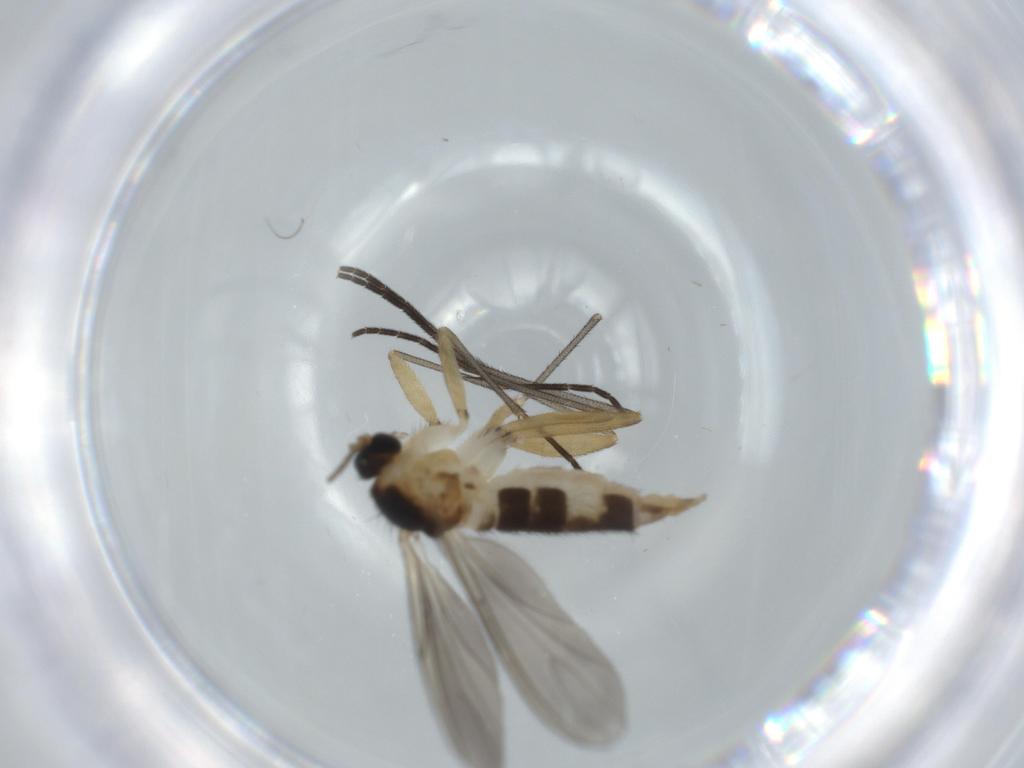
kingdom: Animalia
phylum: Arthropoda
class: Insecta
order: Diptera
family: Sciaridae
